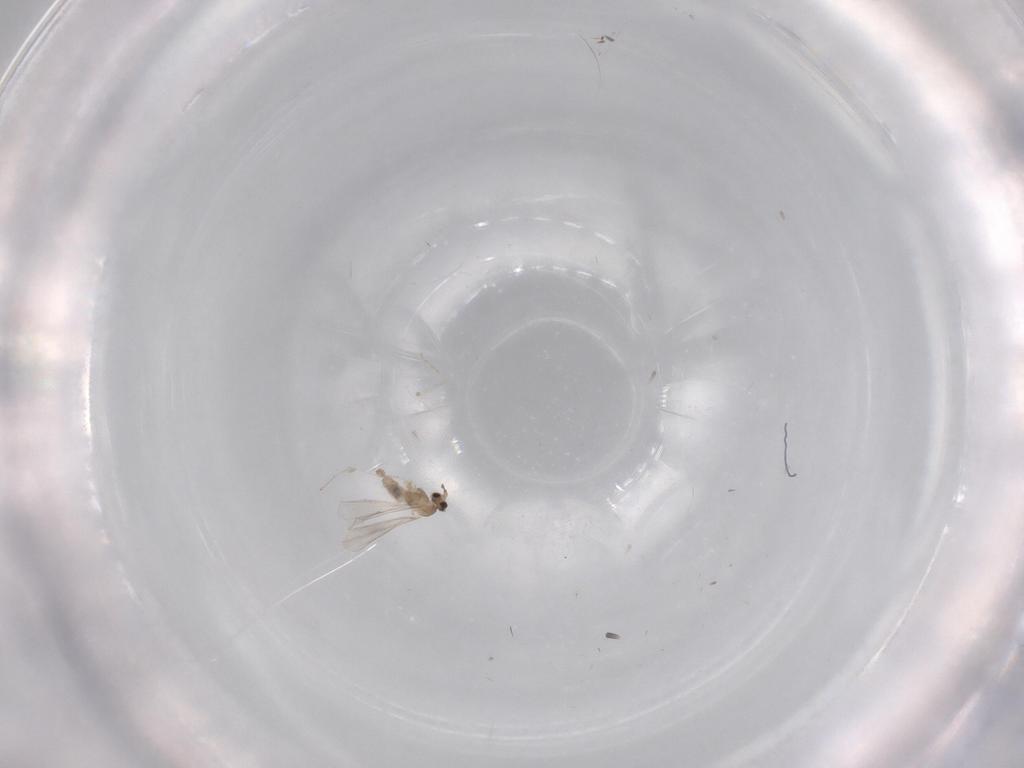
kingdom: Animalia
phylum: Arthropoda
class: Insecta
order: Diptera
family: Cecidomyiidae
